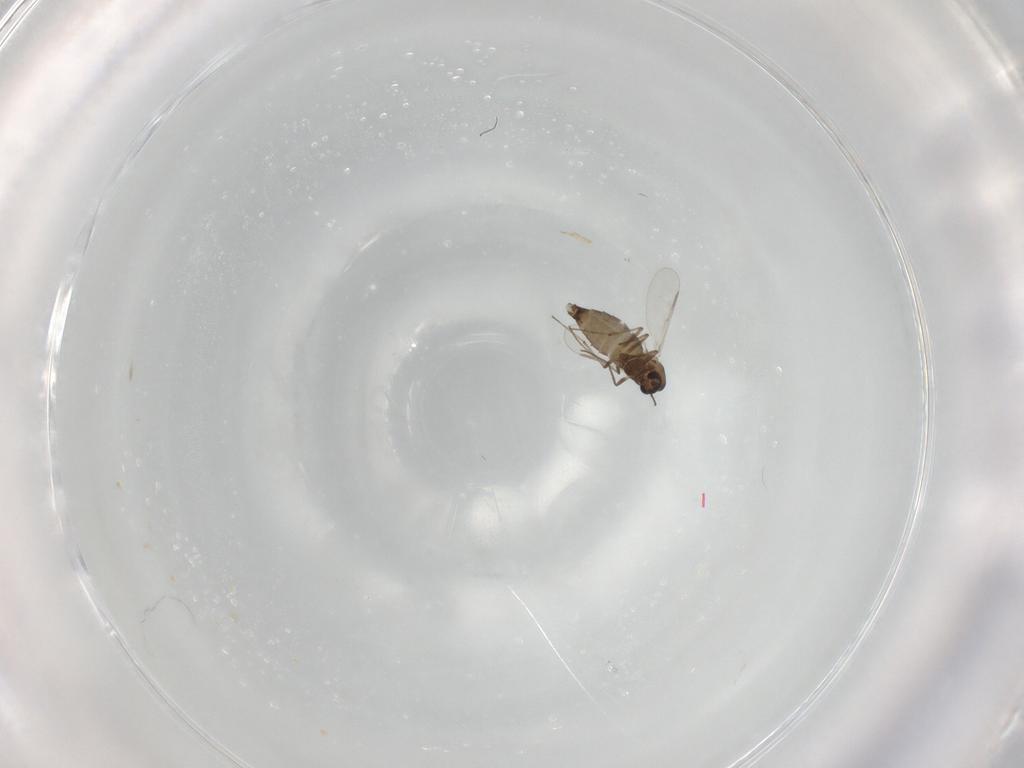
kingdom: Animalia
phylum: Arthropoda
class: Insecta
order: Diptera
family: Chironomidae
